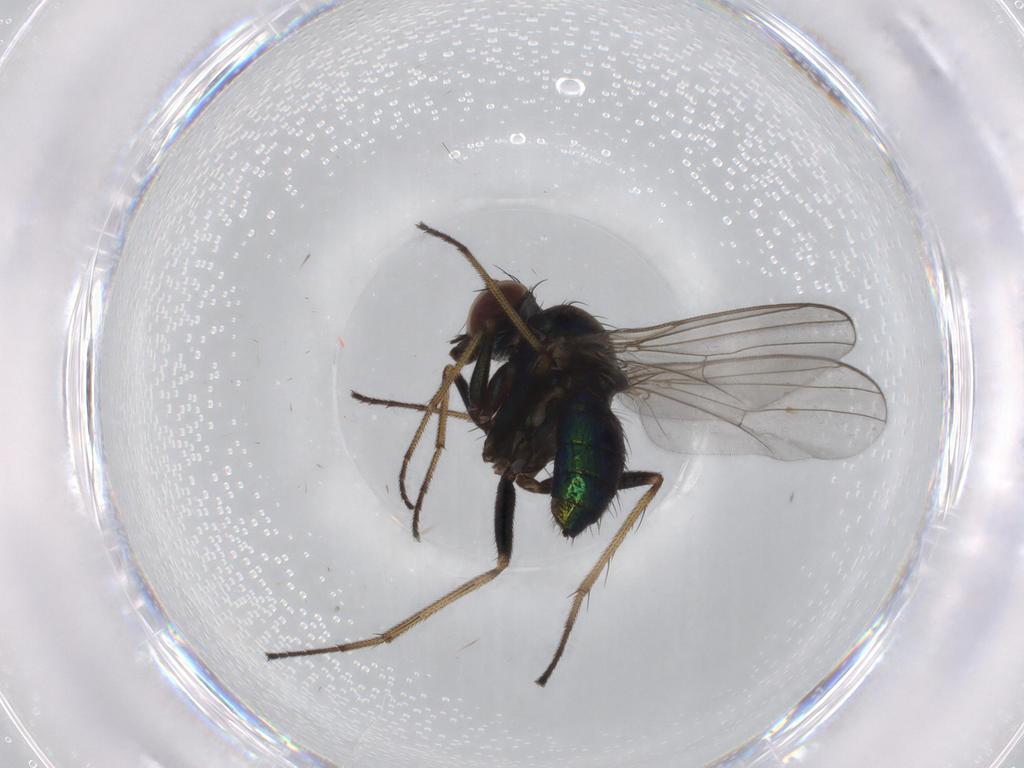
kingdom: Animalia
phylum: Arthropoda
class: Insecta
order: Diptera
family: Dolichopodidae
